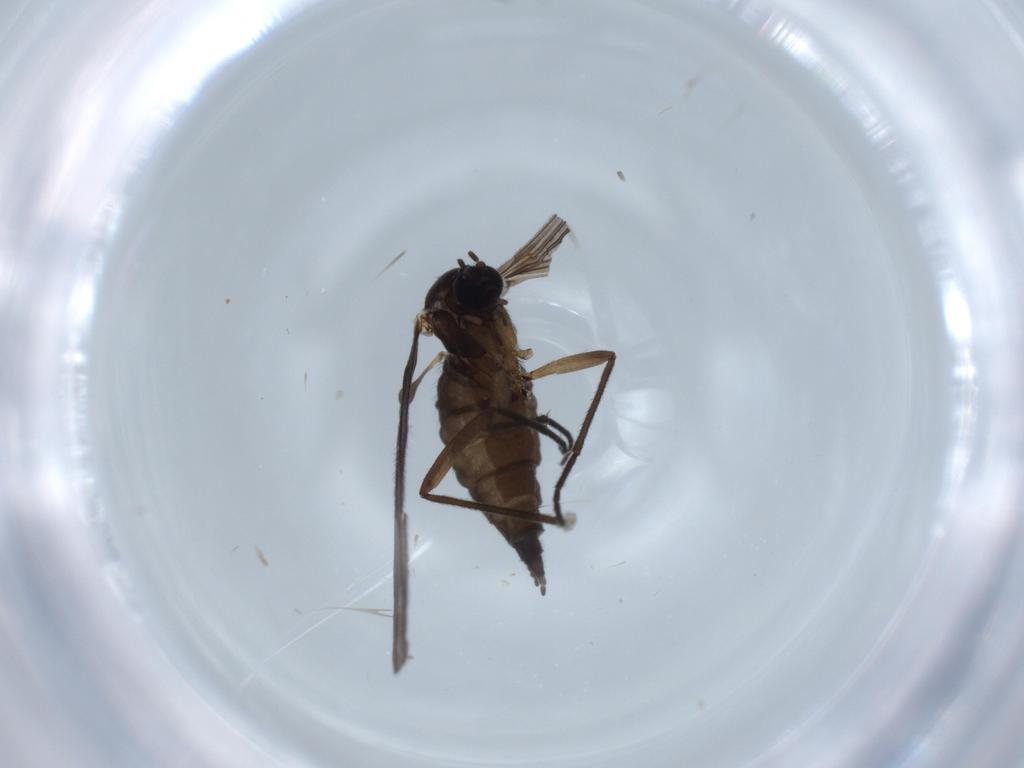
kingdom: Animalia
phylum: Arthropoda
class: Insecta
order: Diptera
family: Sciaridae
